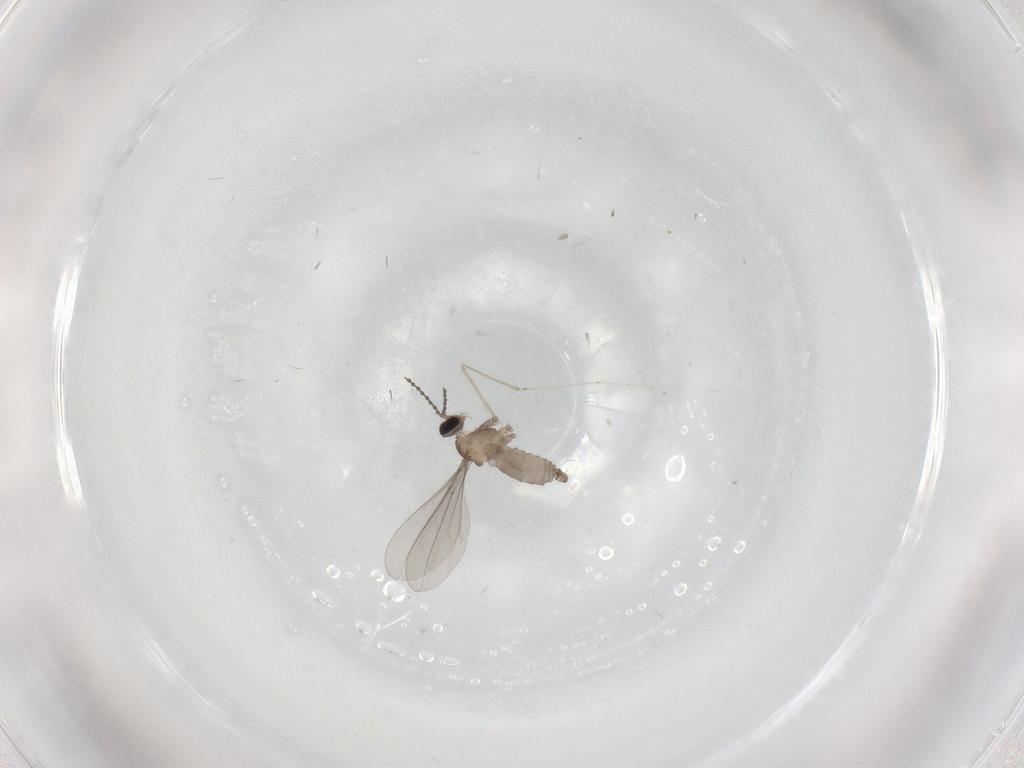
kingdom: Animalia
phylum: Arthropoda
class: Insecta
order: Diptera
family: Cecidomyiidae
